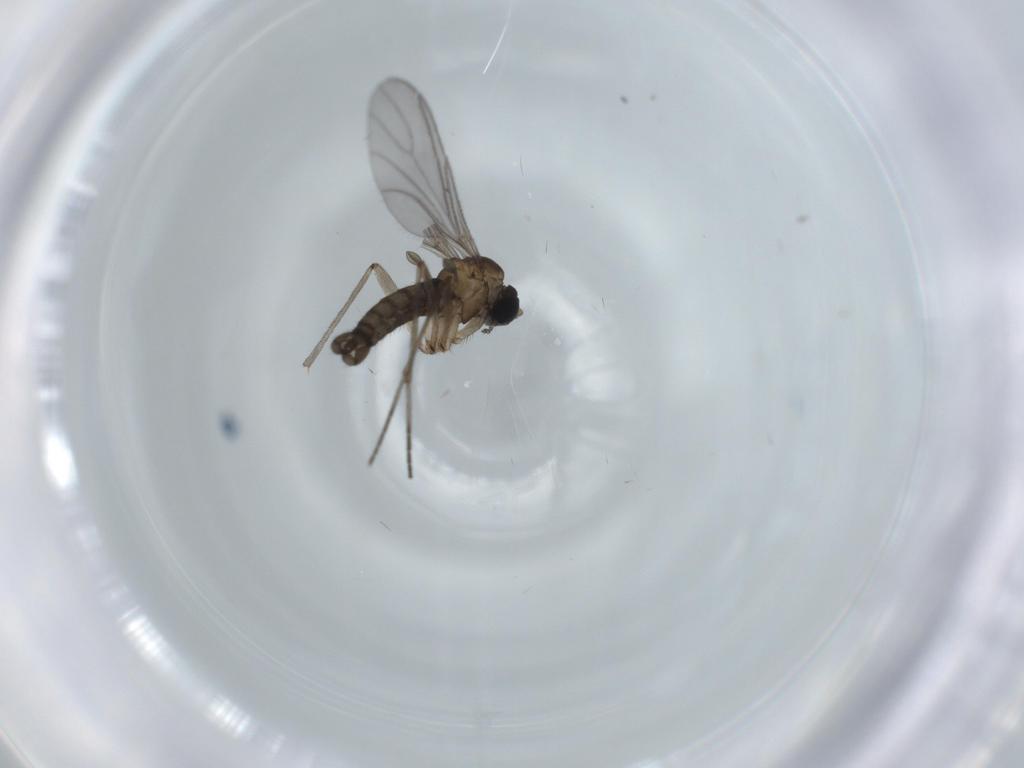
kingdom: Animalia
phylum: Arthropoda
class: Insecta
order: Diptera
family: Sciaridae
